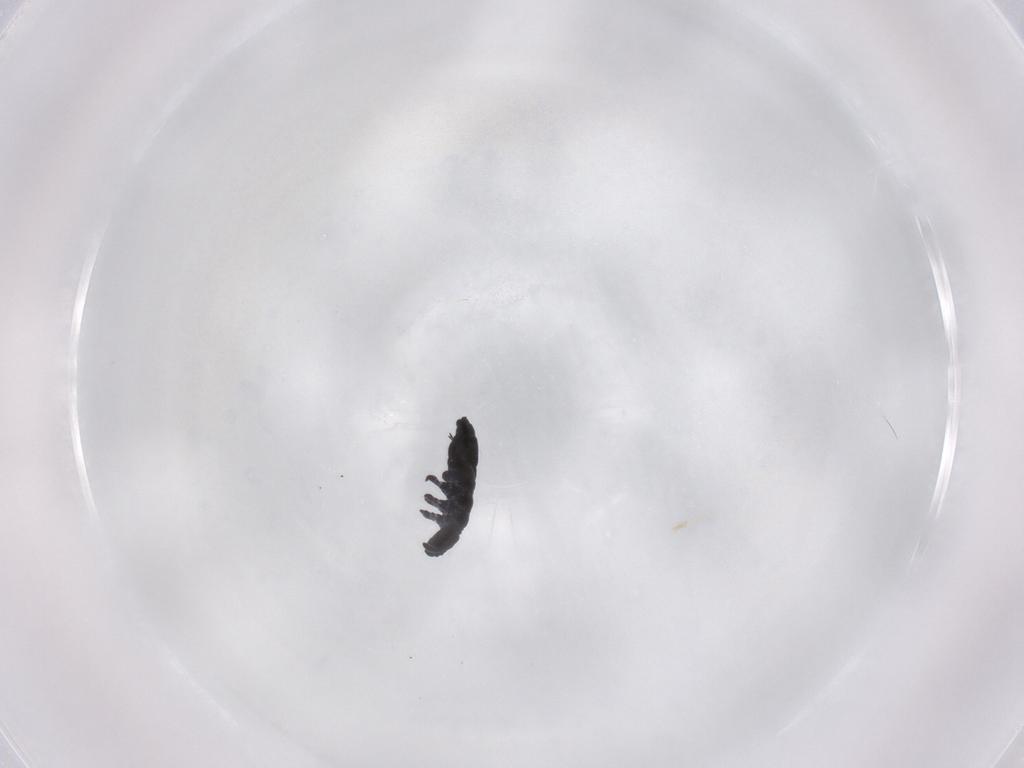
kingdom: Animalia
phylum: Arthropoda
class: Collembola
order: Poduromorpha
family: Hypogastruridae
